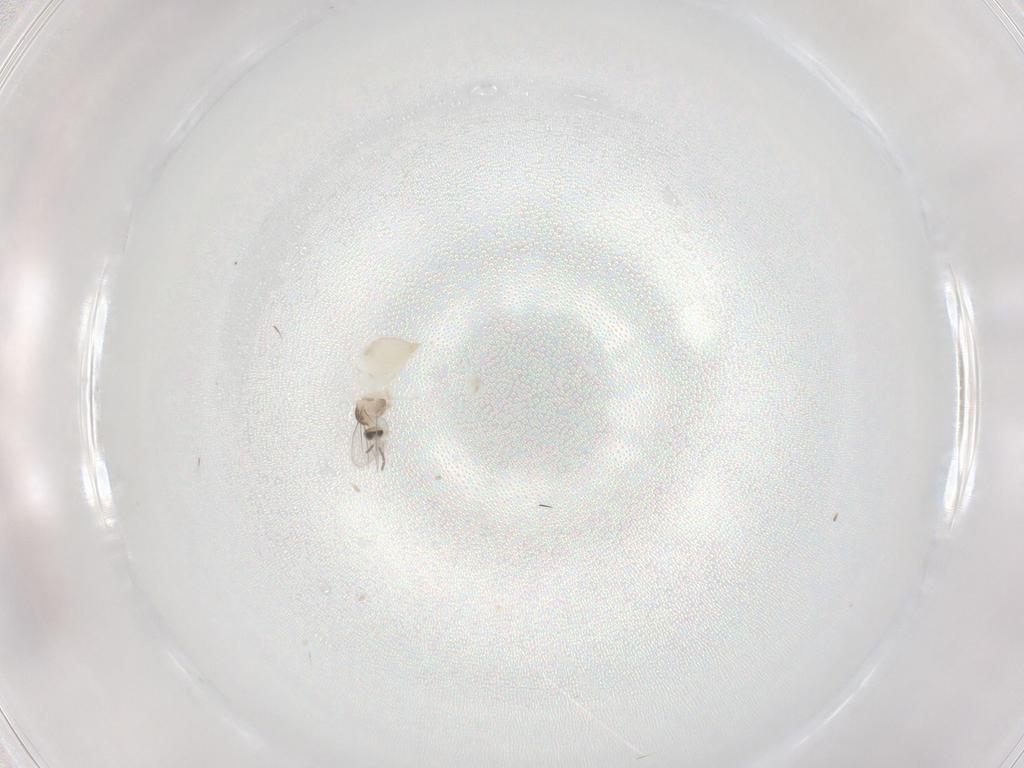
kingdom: Animalia
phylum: Arthropoda
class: Insecta
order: Diptera
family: Cecidomyiidae
